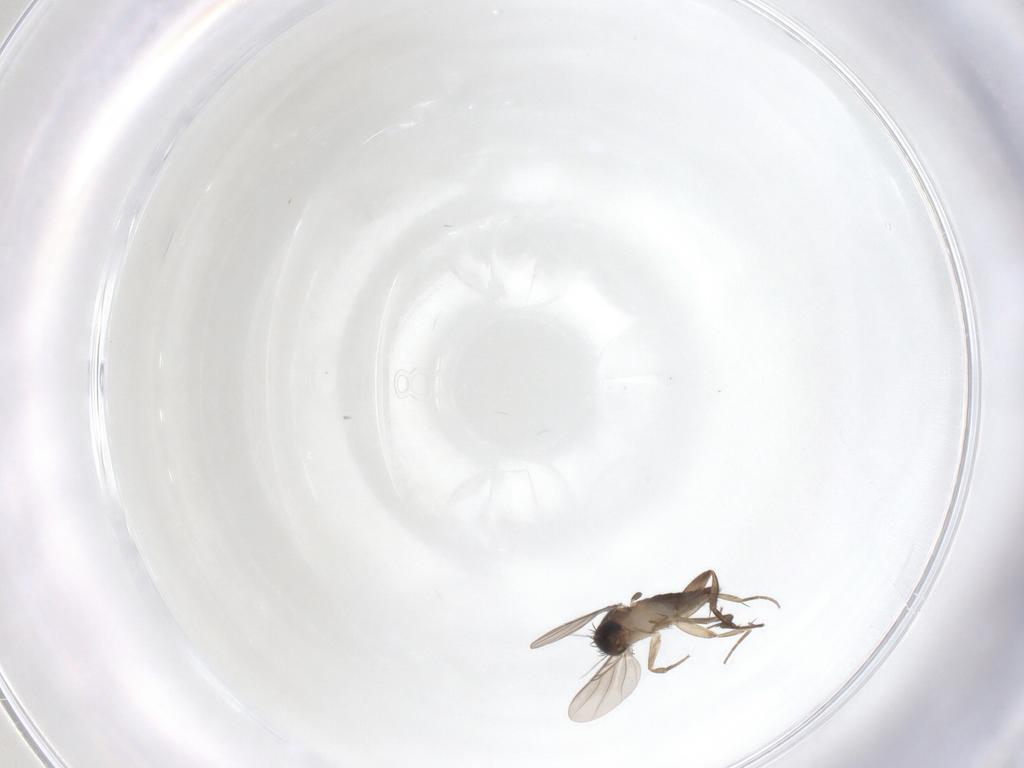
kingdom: Animalia
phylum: Arthropoda
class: Insecta
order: Diptera
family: Phoridae
